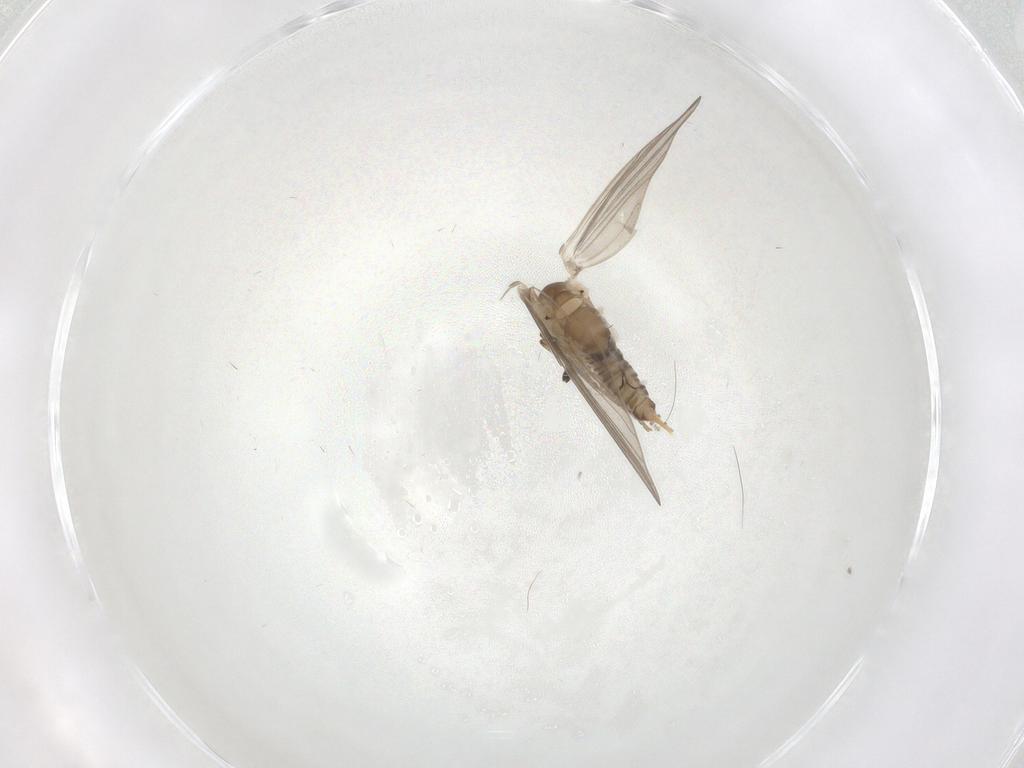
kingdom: Animalia
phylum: Arthropoda
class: Insecta
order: Diptera
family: Psychodidae
